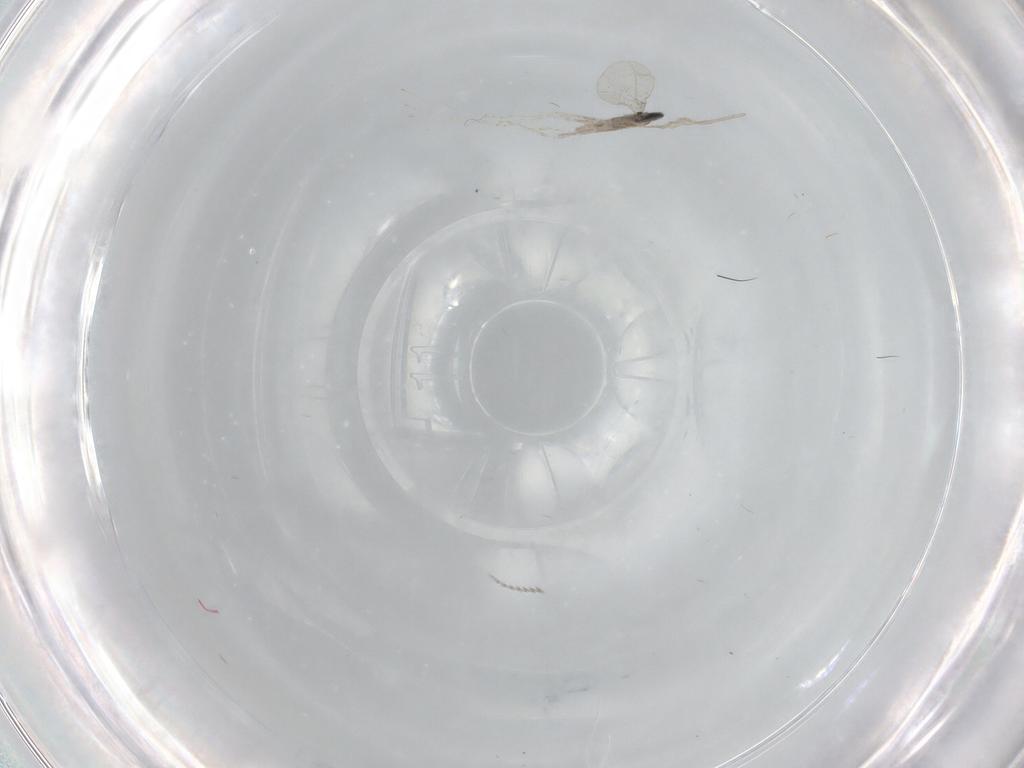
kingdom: Animalia
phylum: Arthropoda
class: Insecta
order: Diptera
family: Cecidomyiidae
